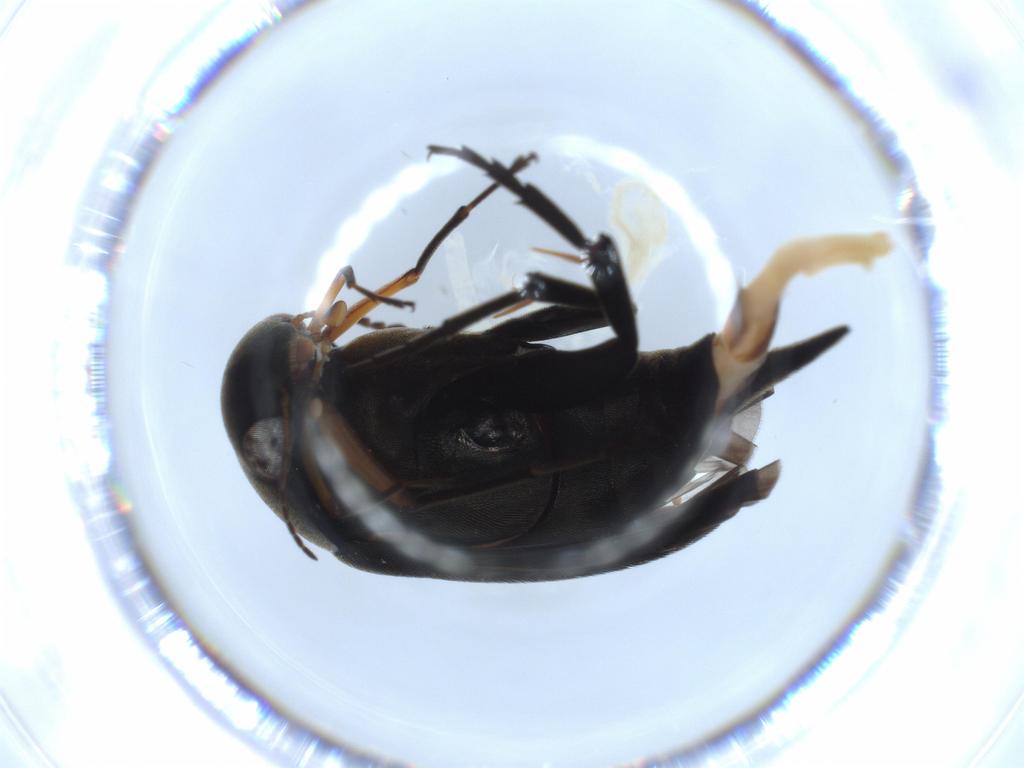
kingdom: Animalia
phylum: Arthropoda
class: Insecta
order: Coleoptera
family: Mordellidae
